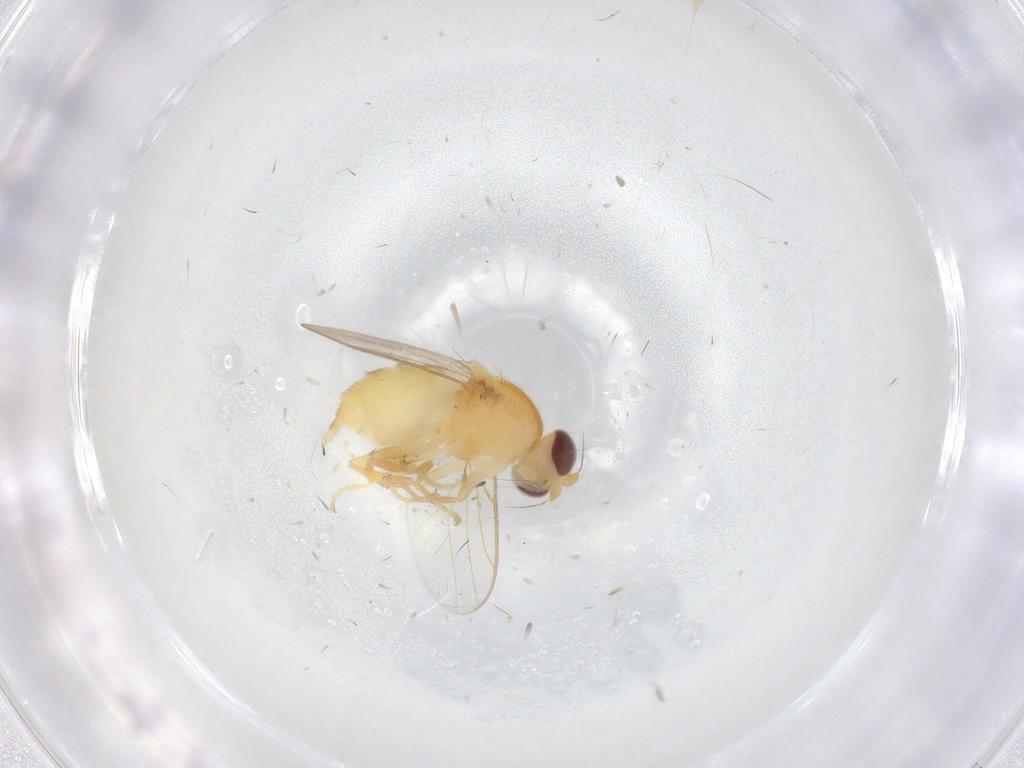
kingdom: Animalia
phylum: Arthropoda
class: Insecta
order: Diptera
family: Chloropidae
